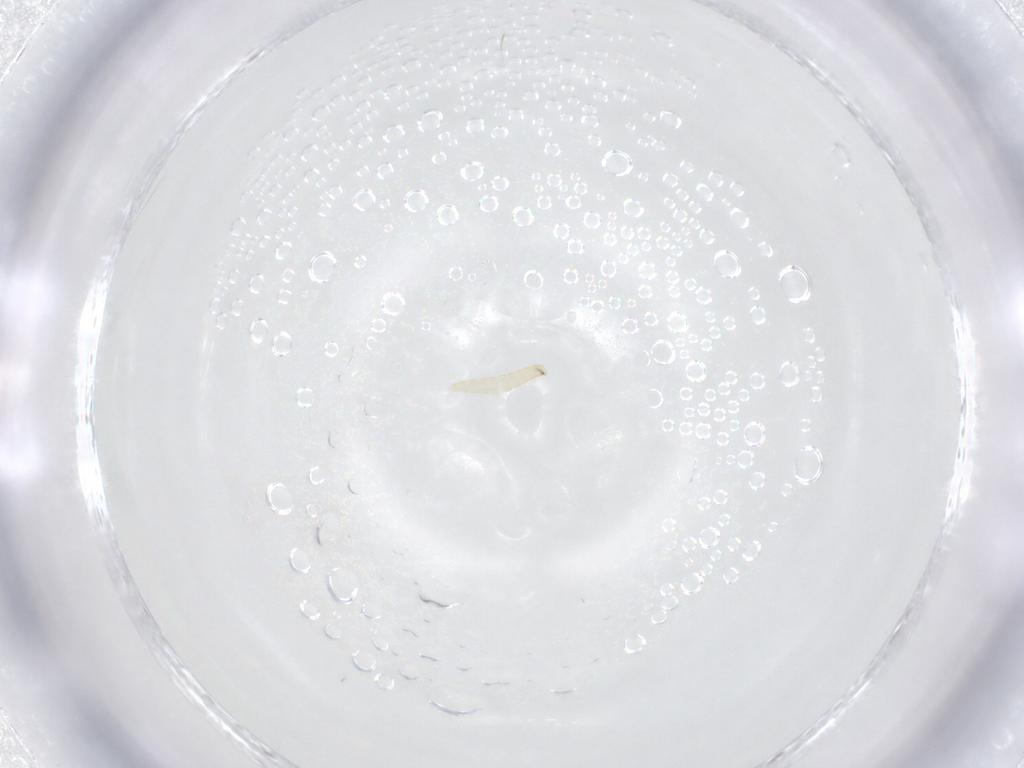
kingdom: Animalia
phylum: Arthropoda
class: Insecta
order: Diptera
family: Tachinidae
